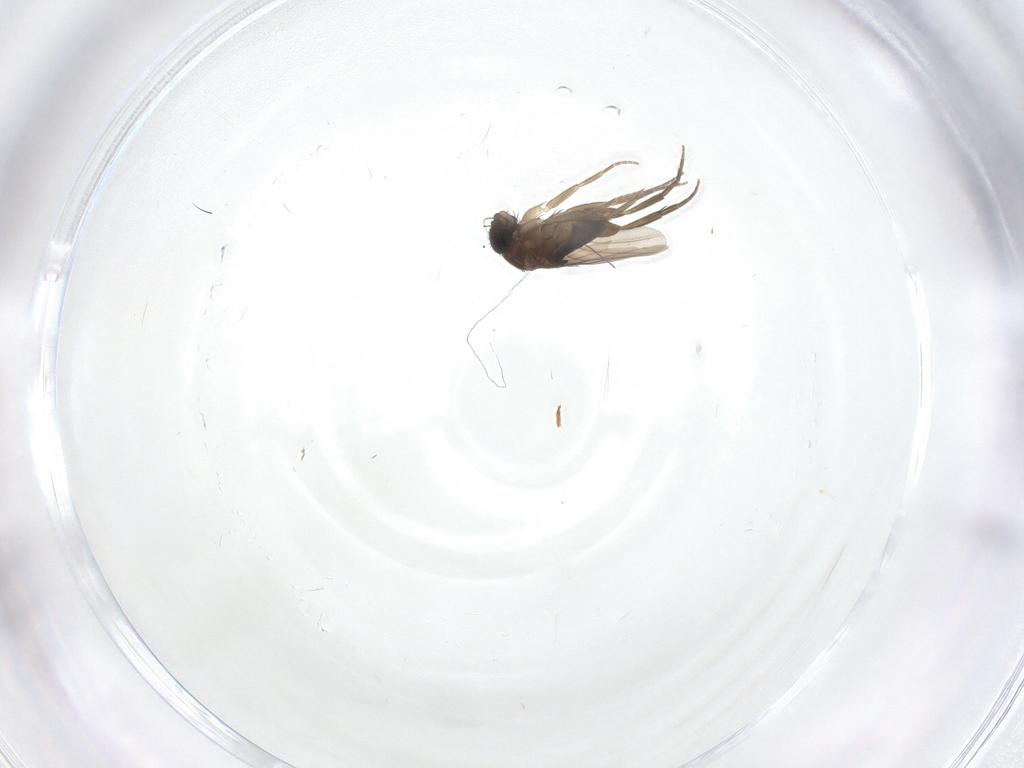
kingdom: Animalia
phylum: Arthropoda
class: Insecta
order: Diptera
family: Phoridae
